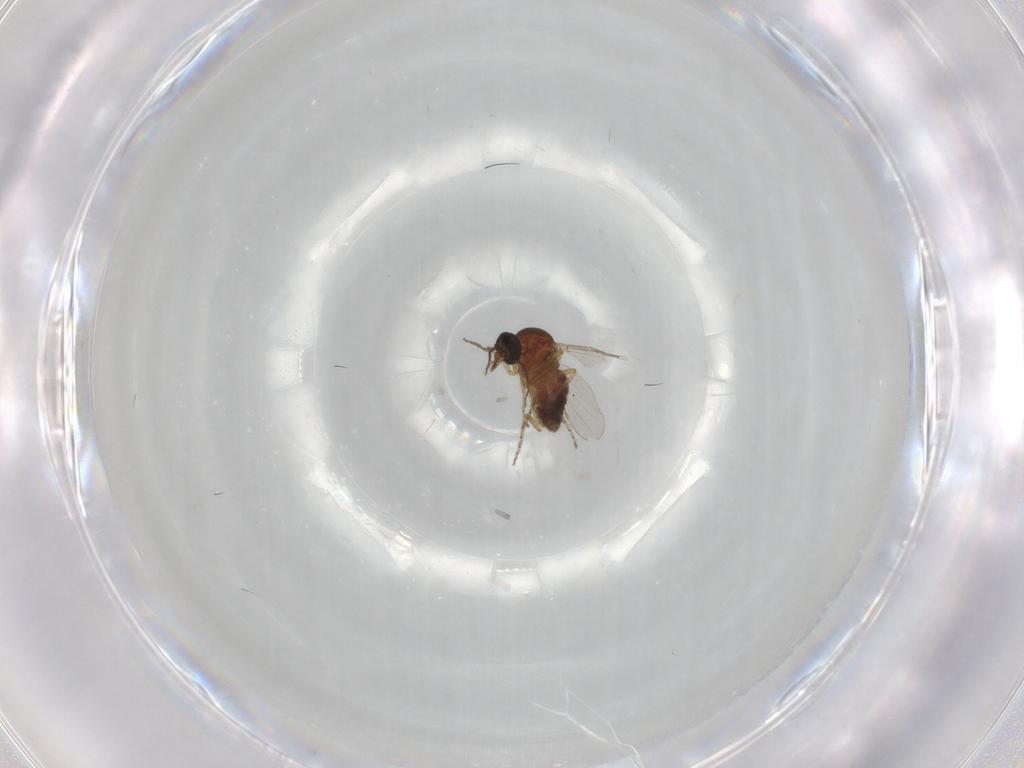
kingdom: Animalia
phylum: Arthropoda
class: Insecta
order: Diptera
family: Ceratopogonidae
